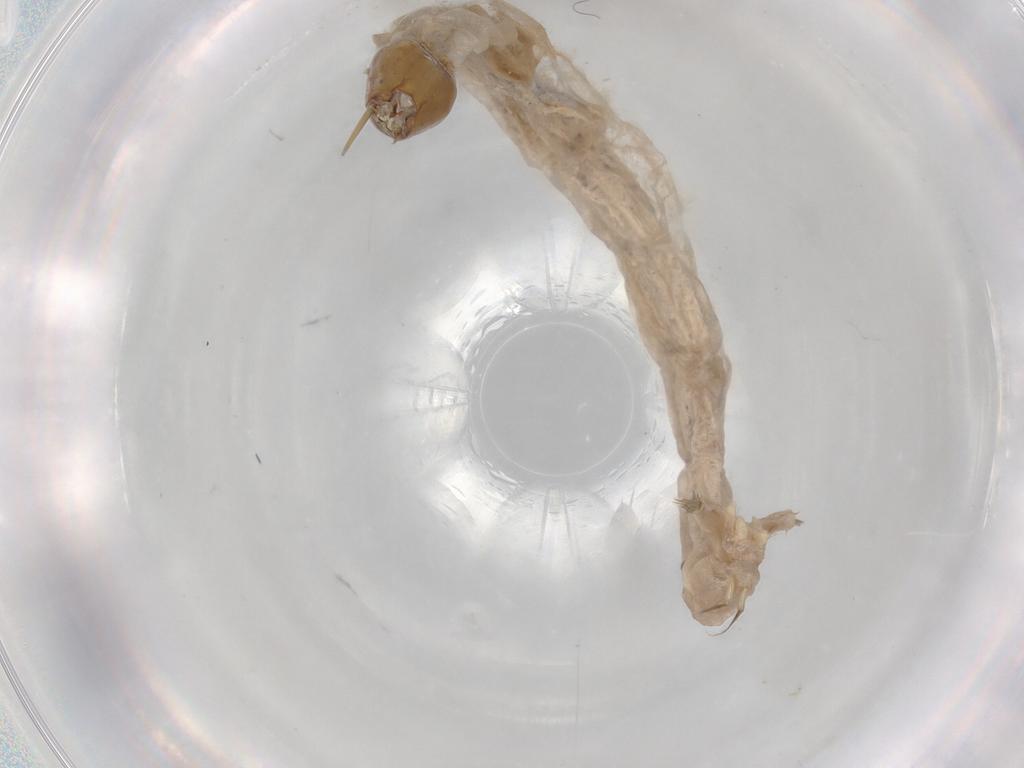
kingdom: Animalia
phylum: Arthropoda
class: Insecta
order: Diptera
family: Chironomidae
